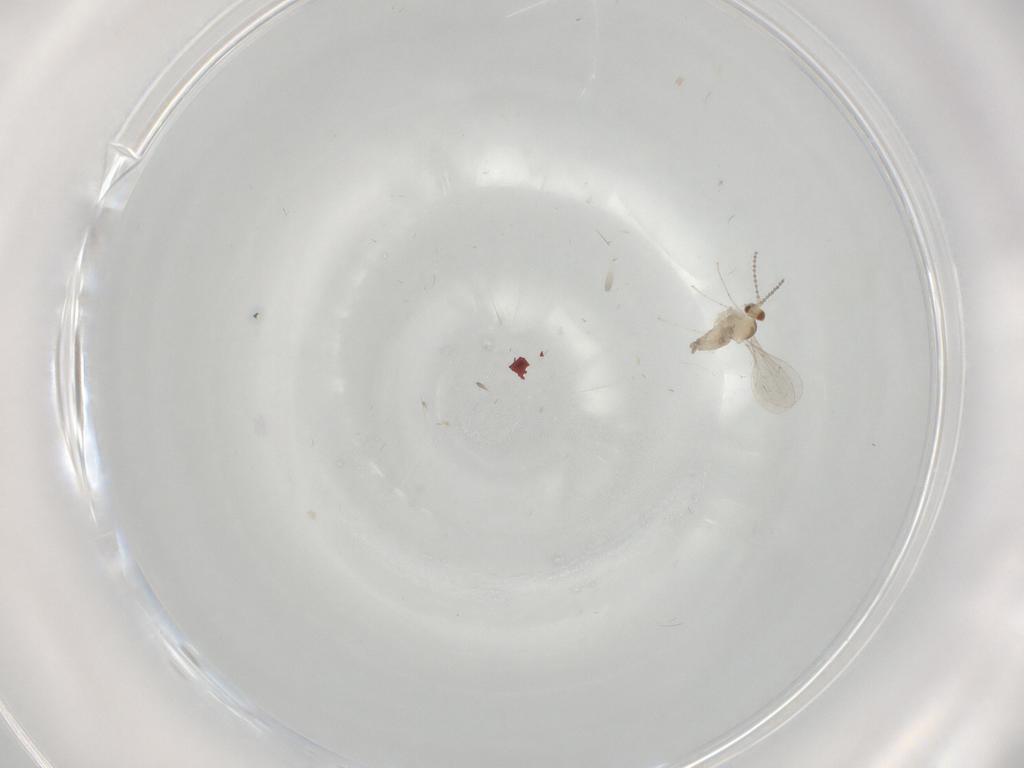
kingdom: Animalia
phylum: Arthropoda
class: Insecta
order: Diptera
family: Cecidomyiidae
